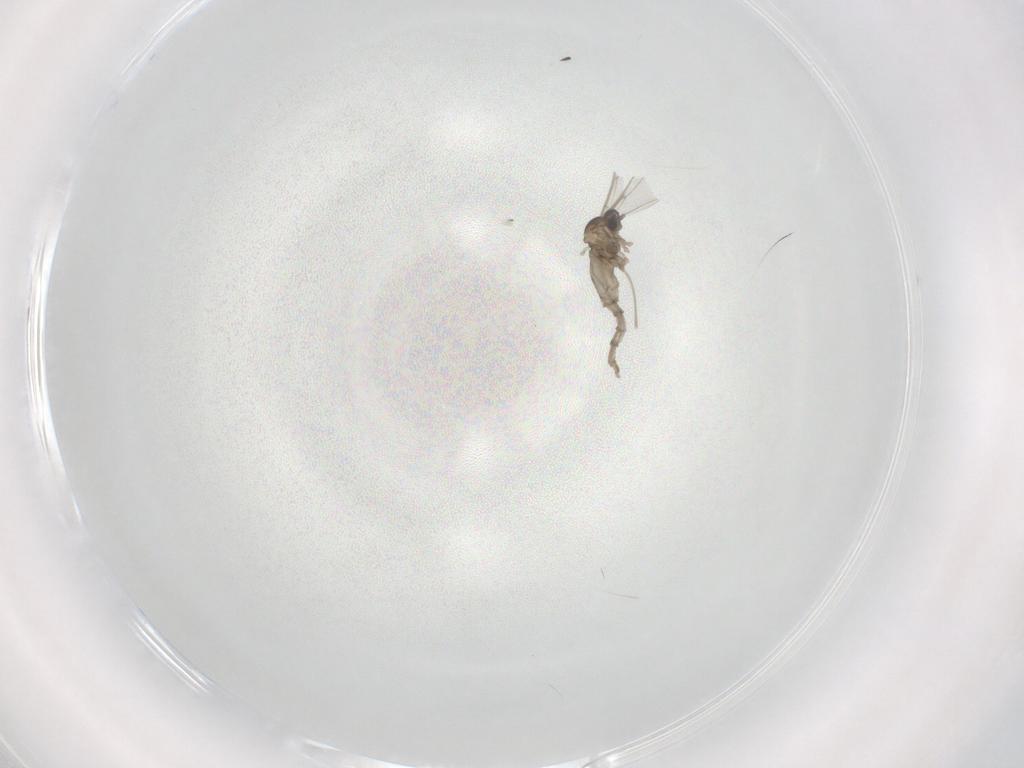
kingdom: Animalia
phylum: Arthropoda
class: Insecta
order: Diptera
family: Cecidomyiidae
